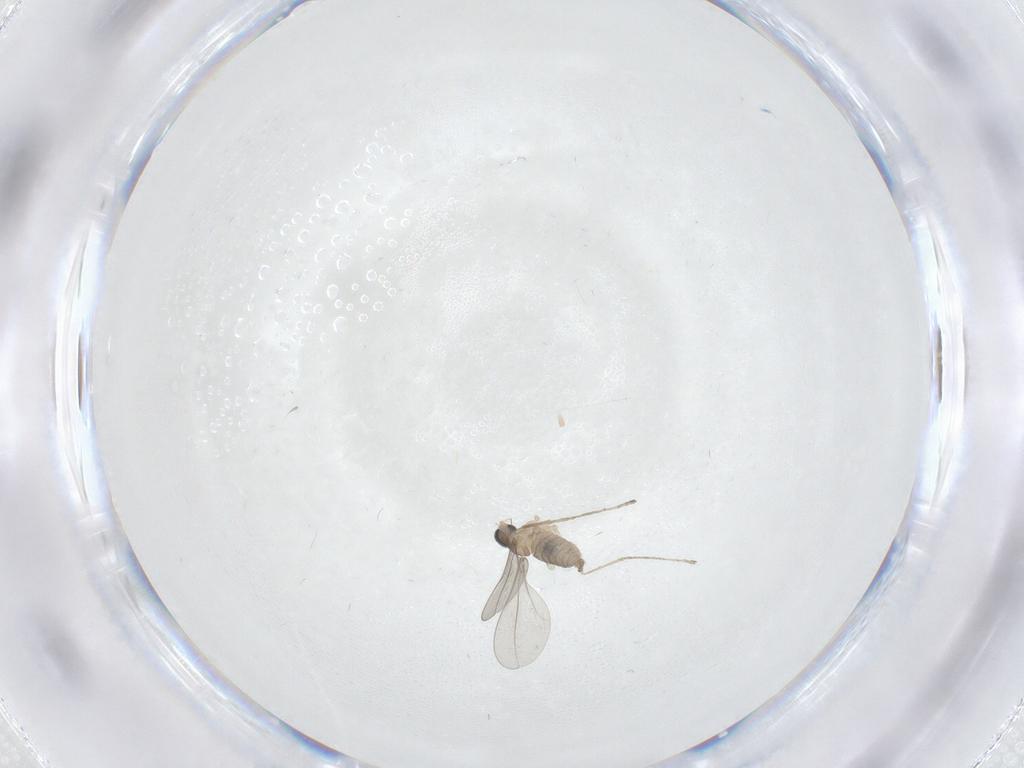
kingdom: Animalia
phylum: Arthropoda
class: Insecta
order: Diptera
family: Cecidomyiidae
